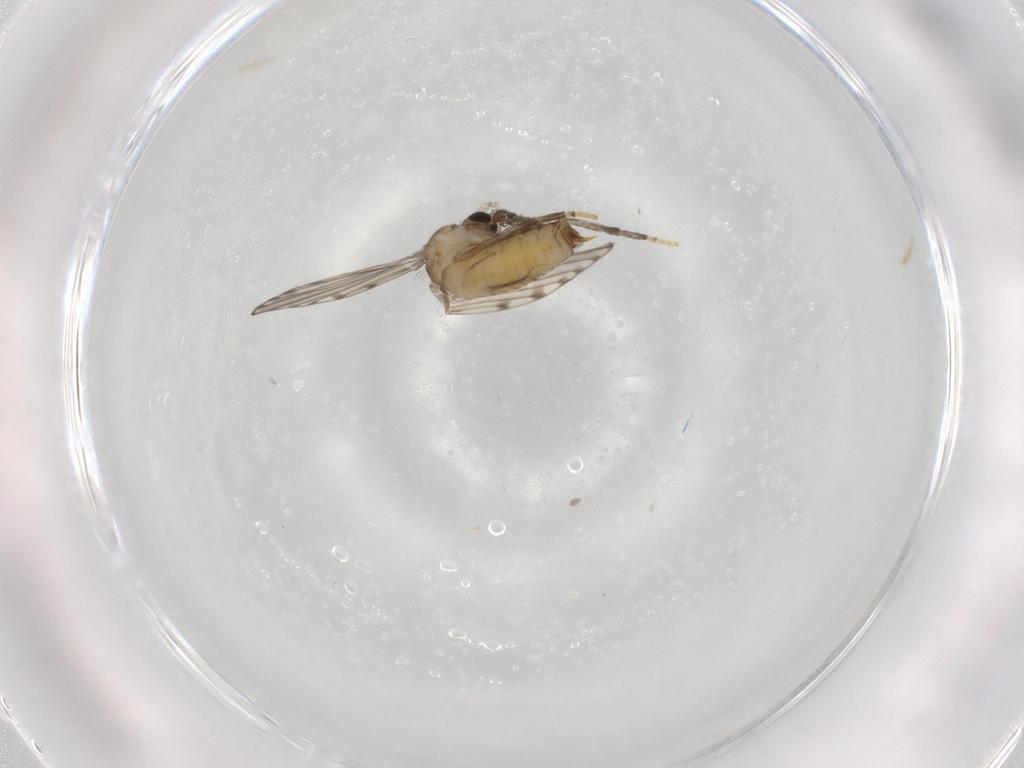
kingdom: Animalia
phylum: Arthropoda
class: Insecta
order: Diptera
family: Psychodidae
